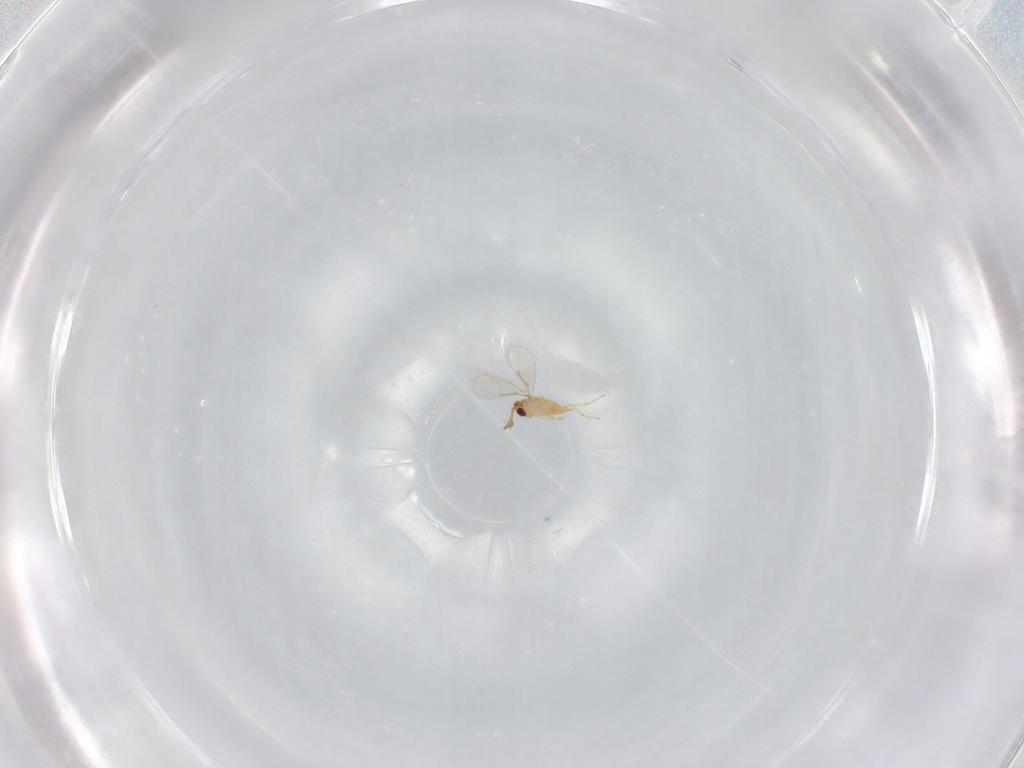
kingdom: Animalia
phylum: Arthropoda
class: Insecta
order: Hymenoptera
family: Aphelinidae
